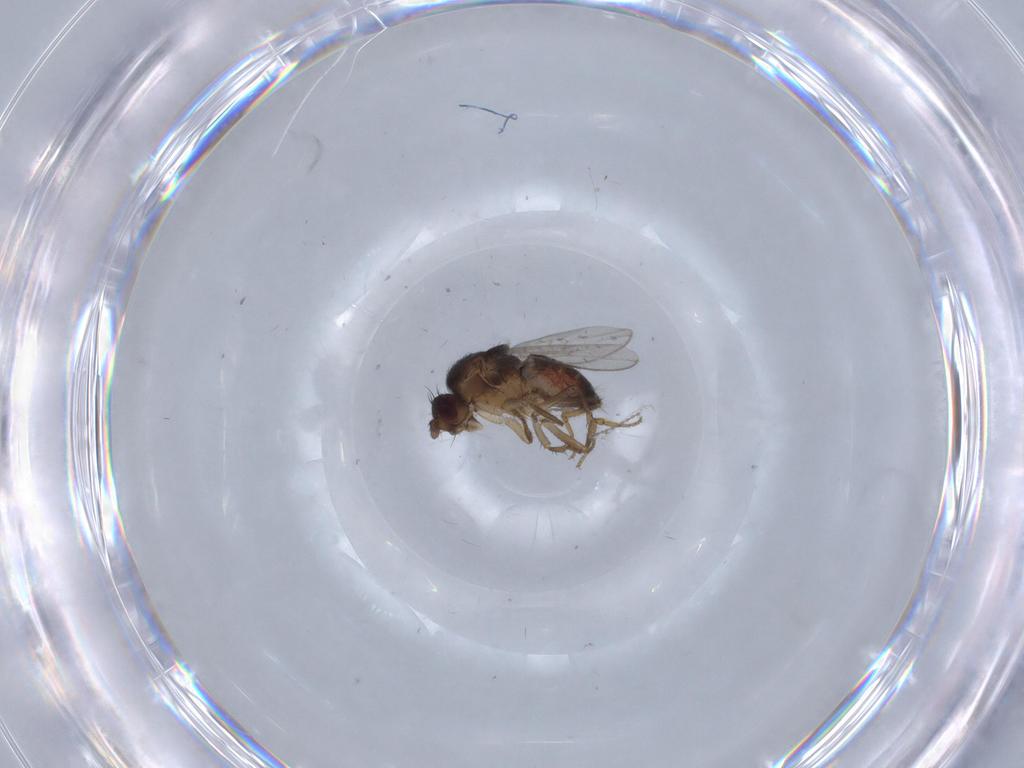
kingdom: Animalia
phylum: Arthropoda
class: Insecta
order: Diptera
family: Chironomidae
